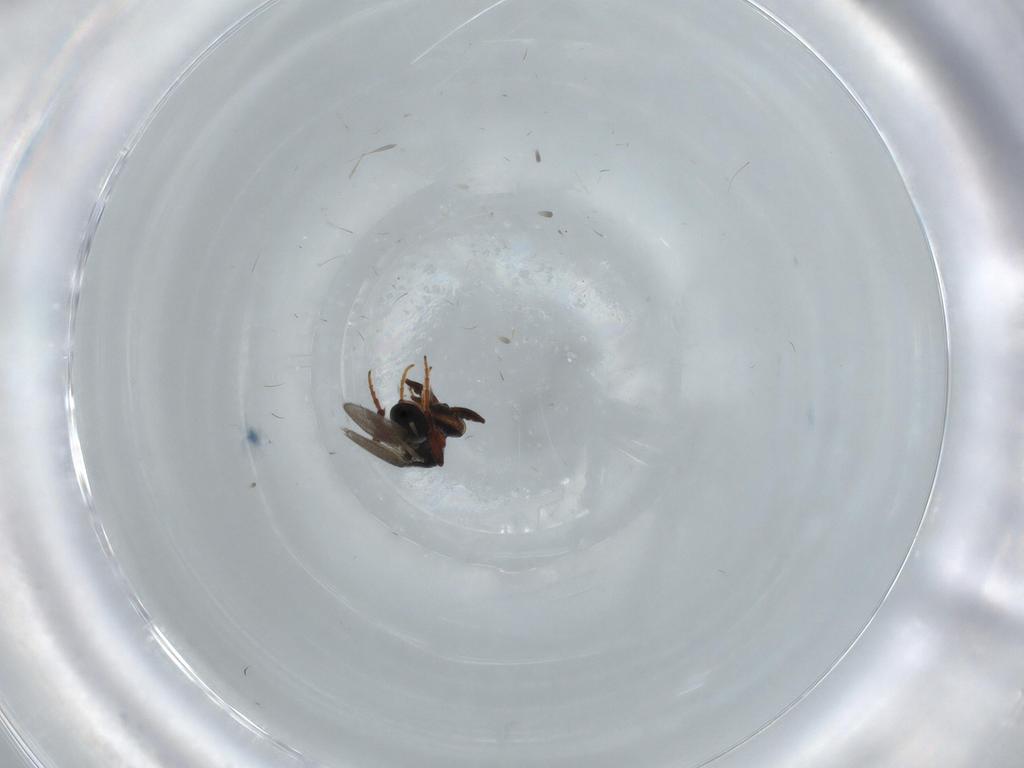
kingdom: Animalia
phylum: Arthropoda
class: Insecta
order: Hymenoptera
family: Platygastridae
